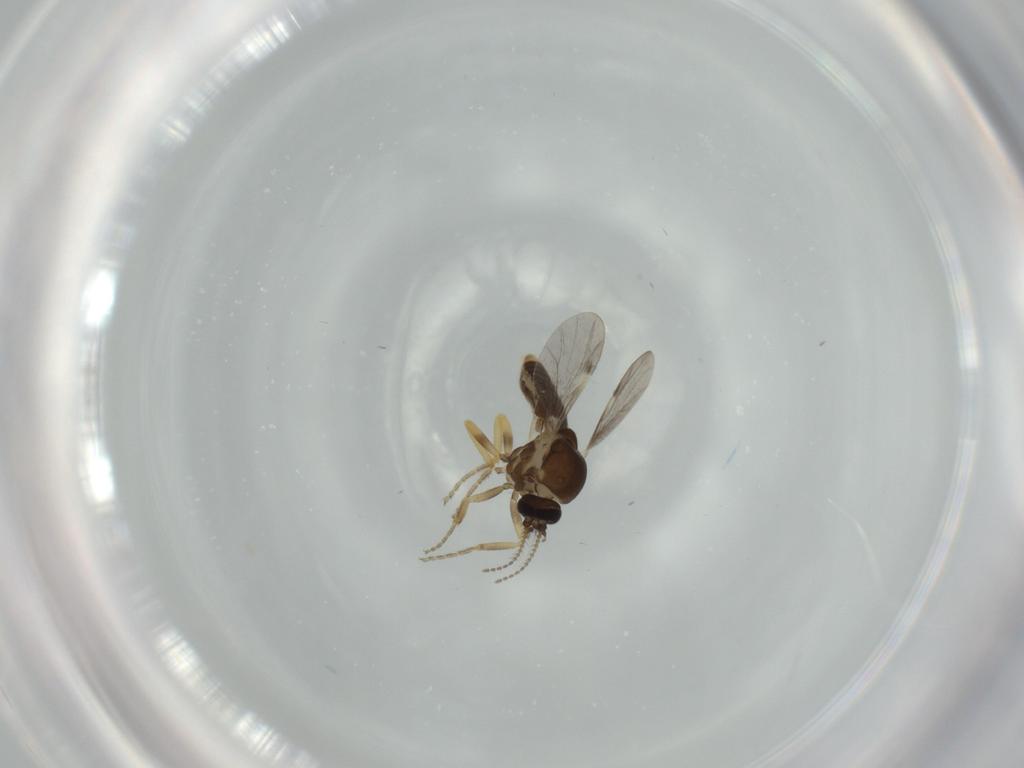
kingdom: Animalia
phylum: Arthropoda
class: Insecta
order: Diptera
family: Ceratopogonidae
